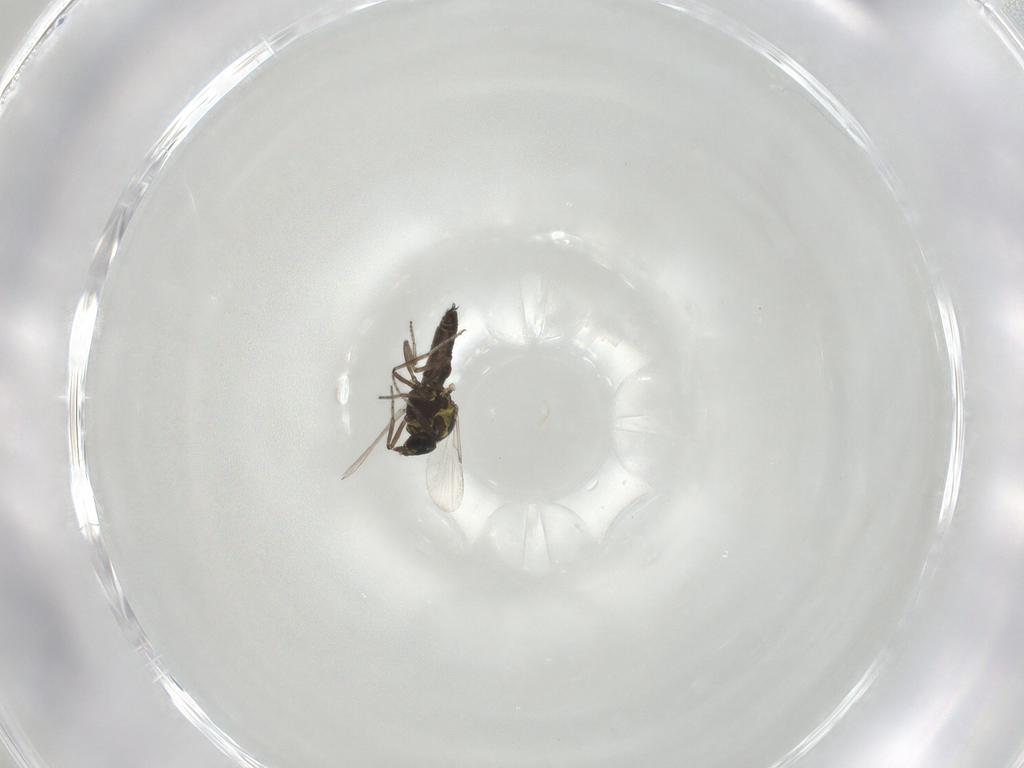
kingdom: Animalia
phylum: Arthropoda
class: Insecta
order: Diptera
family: Ceratopogonidae
